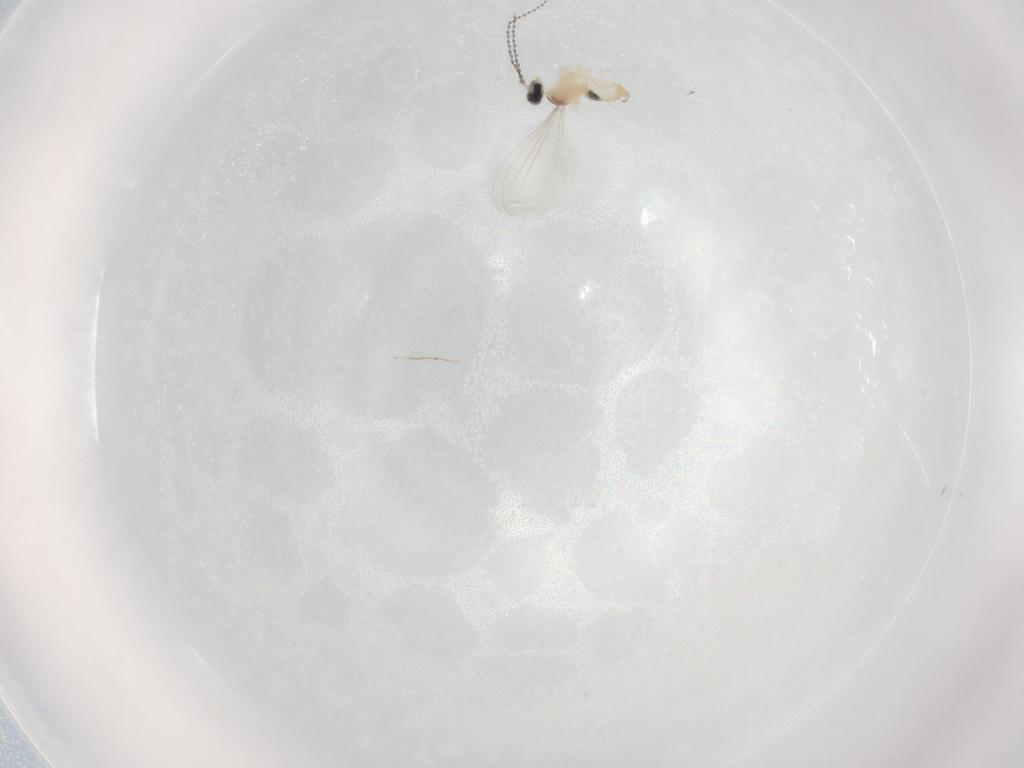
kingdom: Animalia
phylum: Arthropoda
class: Insecta
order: Diptera
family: Cecidomyiidae
